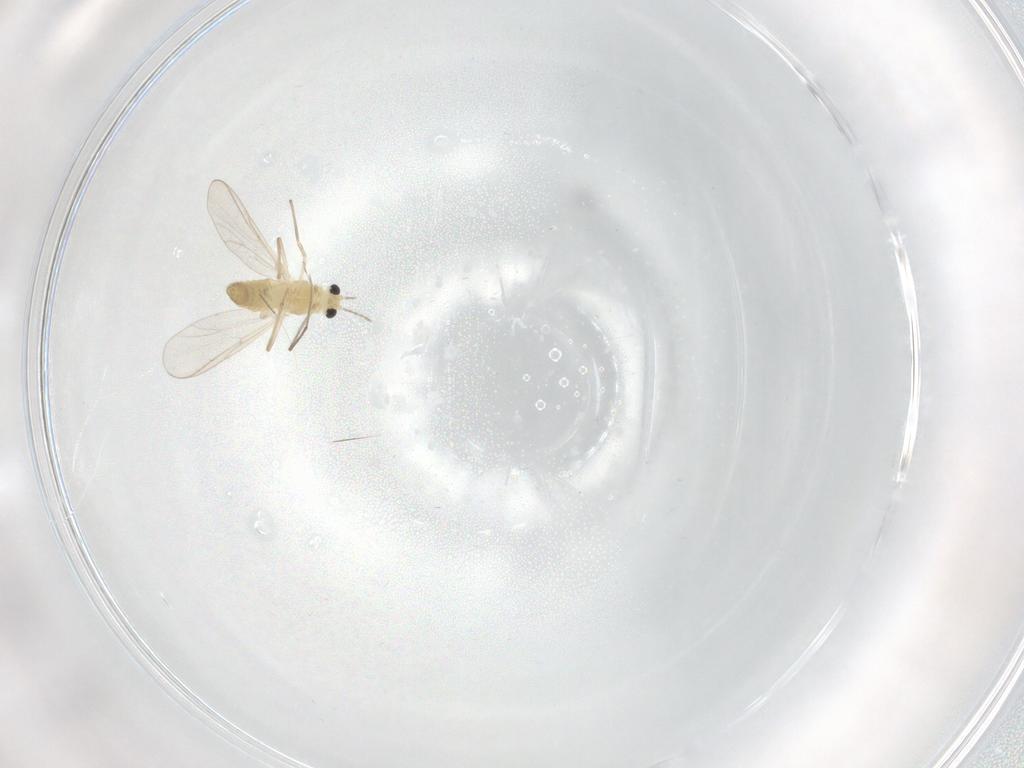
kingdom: Animalia
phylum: Arthropoda
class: Insecta
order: Diptera
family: Chironomidae
